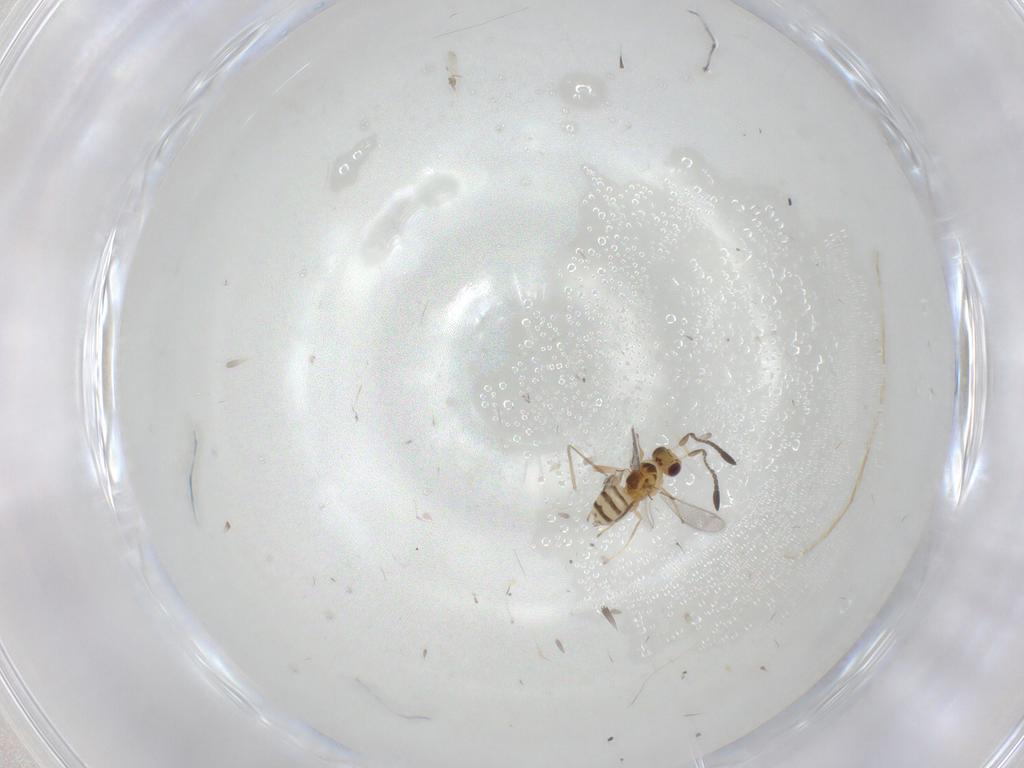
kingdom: Animalia
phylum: Arthropoda
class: Insecta
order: Hymenoptera
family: Mymaridae
